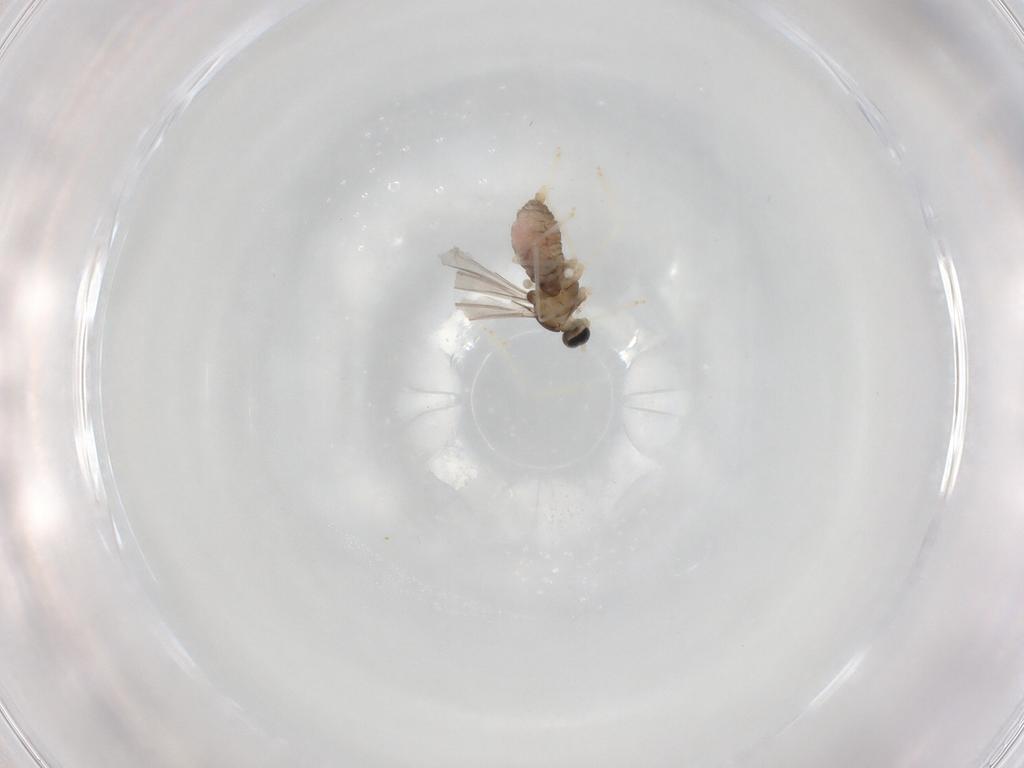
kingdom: Animalia
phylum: Arthropoda
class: Insecta
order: Diptera
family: Cecidomyiidae
